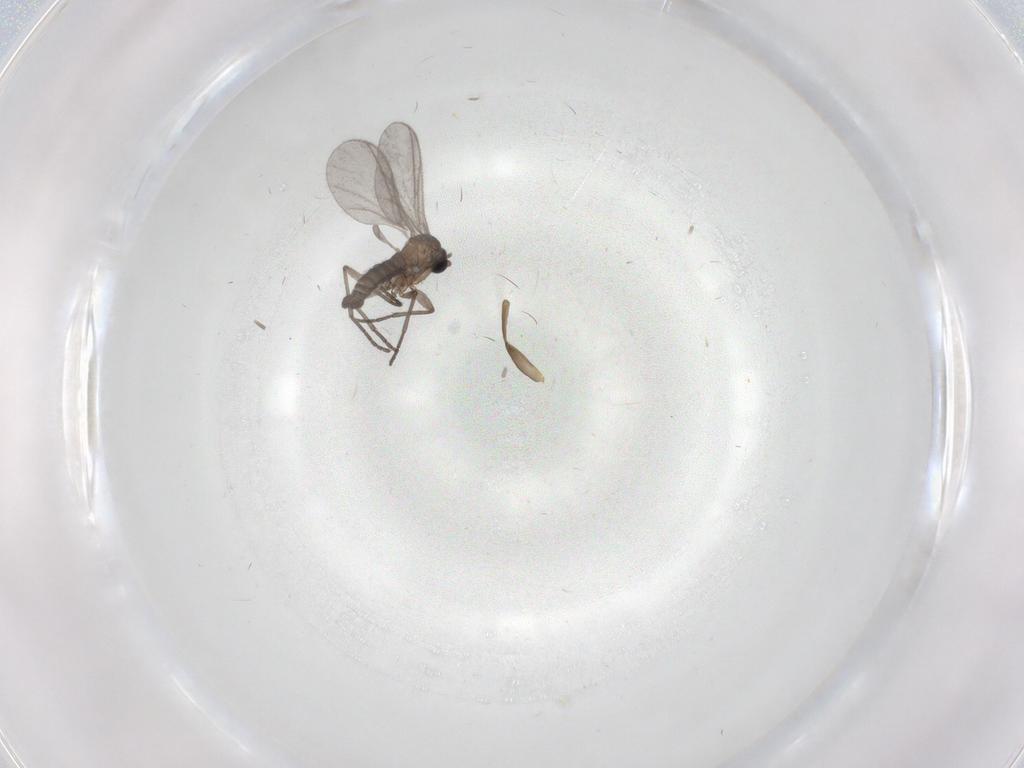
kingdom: Animalia
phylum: Arthropoda
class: Insecta
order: Diptera
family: Sciaridae
